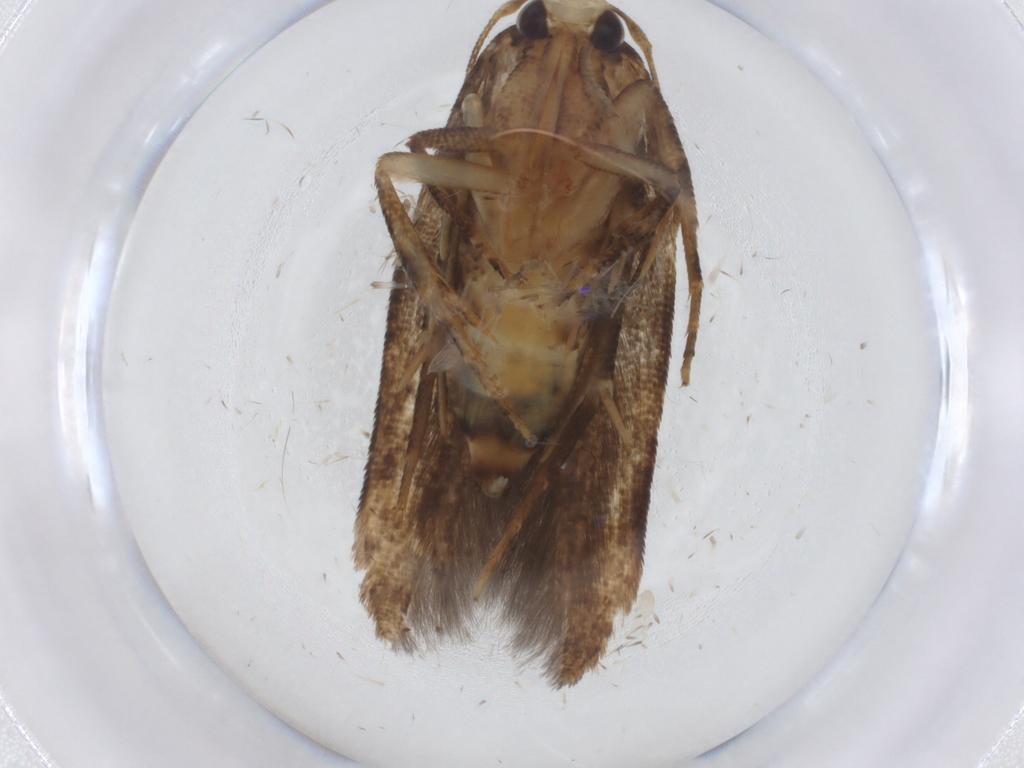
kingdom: Animalia
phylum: Arthropoda
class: Insecta
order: Lepidoptera
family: Cosmopterigidae
